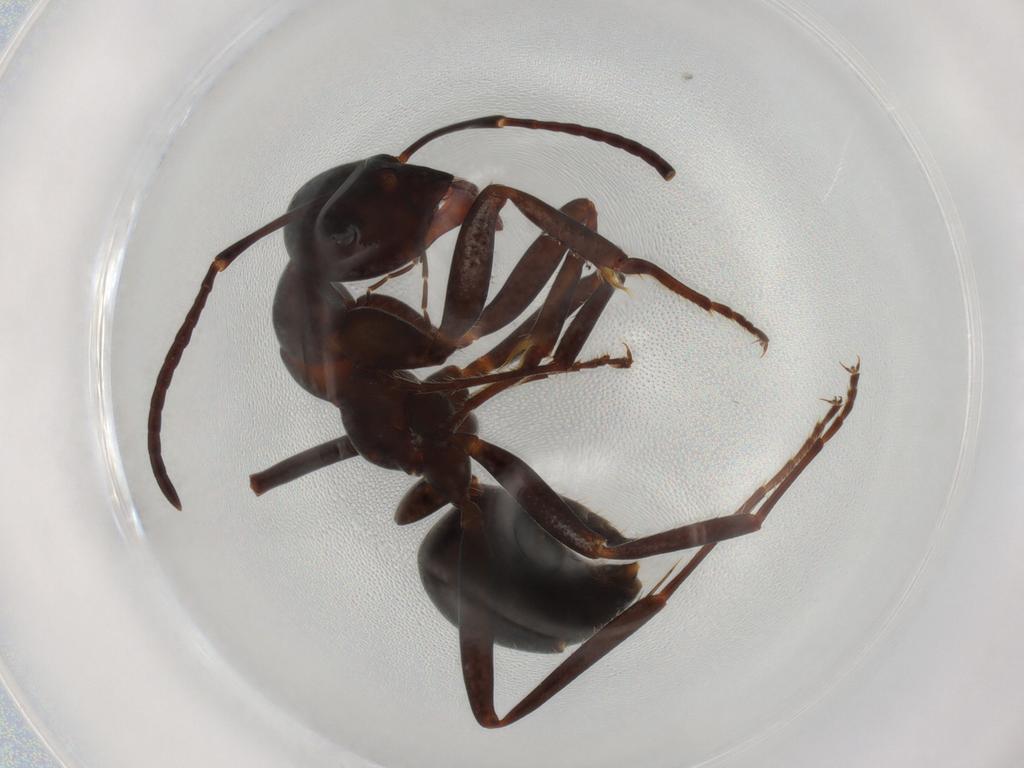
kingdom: Animalia
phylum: Arthropoda
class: Insecta
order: Hymenoptera
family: Formicidae
